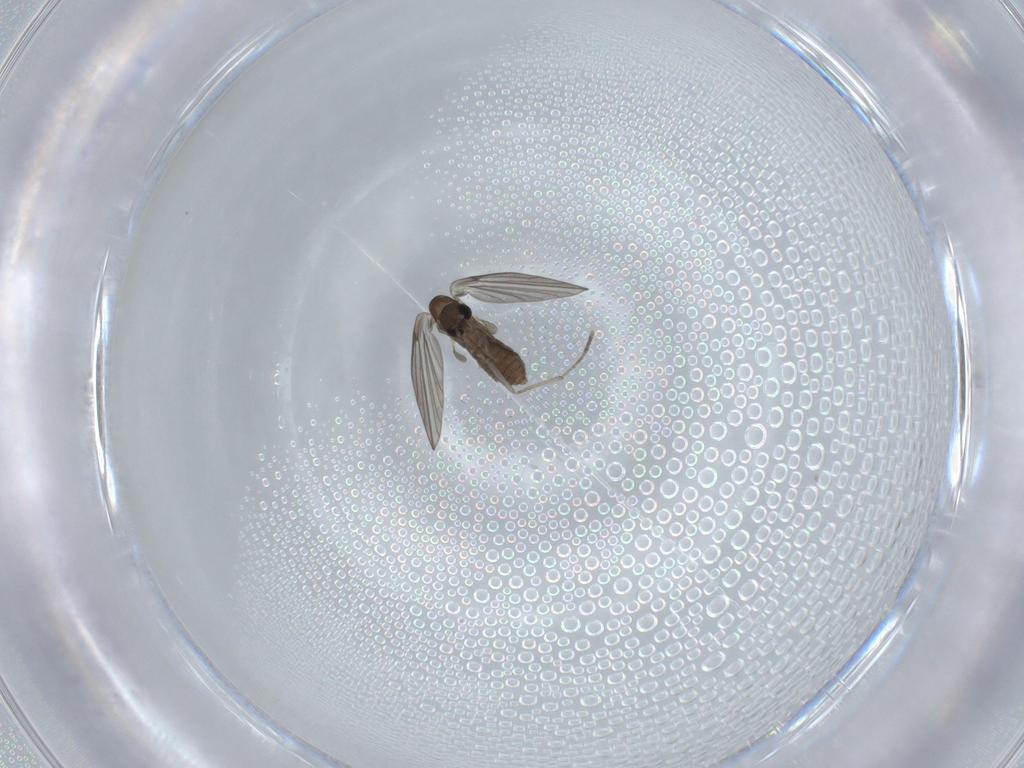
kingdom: Animalia
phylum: Arthropoda
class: Insecta
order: Diptera
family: Psychodidae
